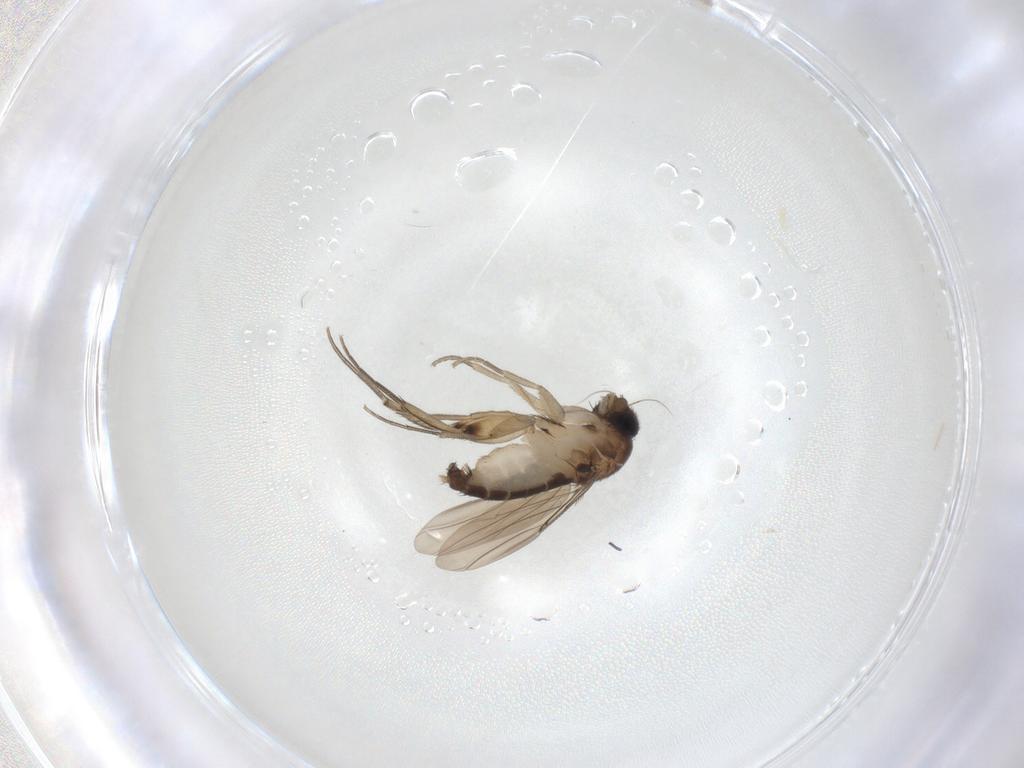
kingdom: Animalia
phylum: Arthropoda
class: Insecta
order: Diptera
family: Phoridae
